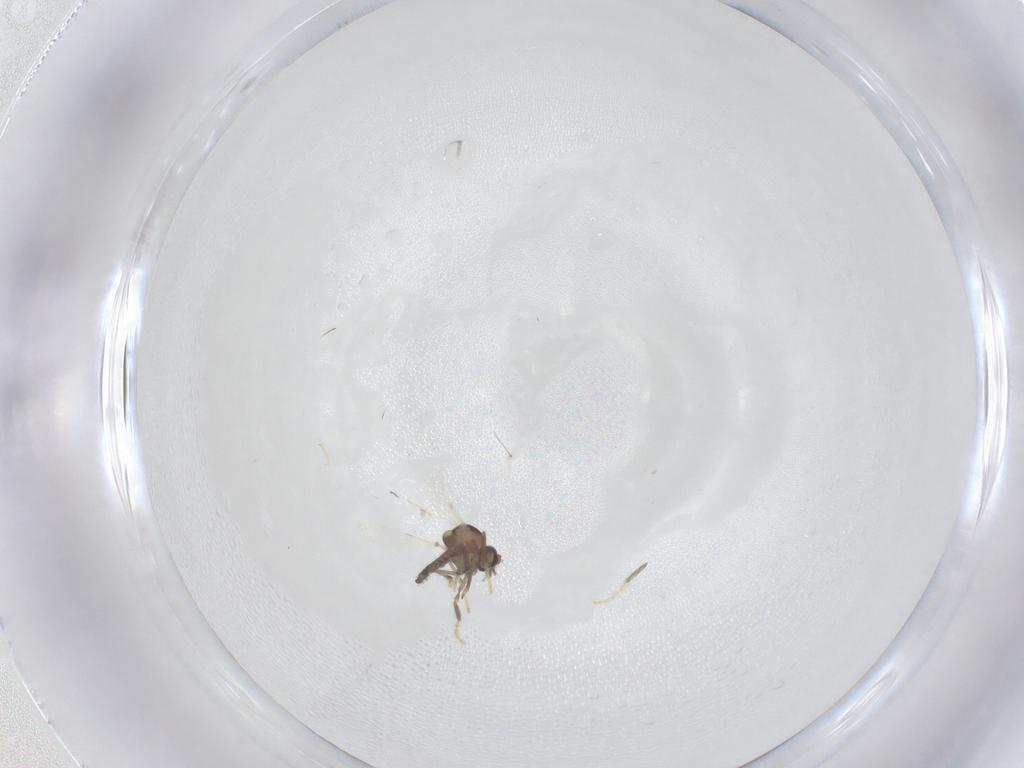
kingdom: Animalia
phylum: Arthropoda
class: Insecta
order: Diptera
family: Cecidomyiidae
